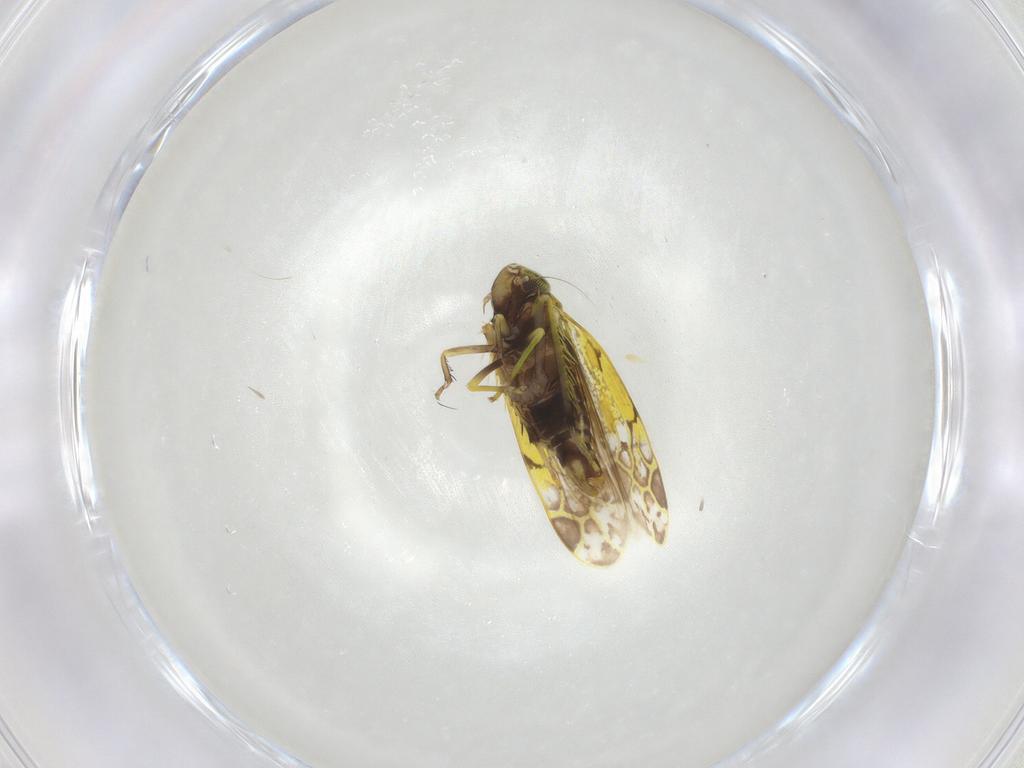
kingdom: Animalia
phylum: Arthropoda
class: Insecta
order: Hemiptera
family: Cicadellidae
